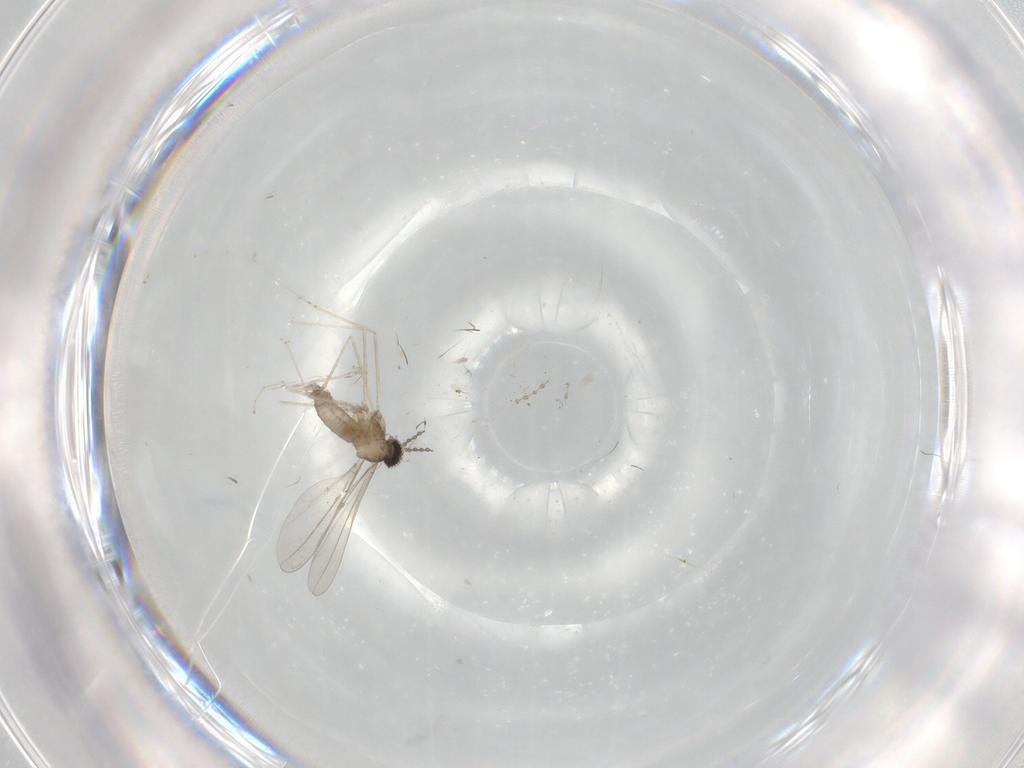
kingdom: Animalia
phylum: Arthropoda
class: Insecta
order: Diptera
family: Cecidomyiidae
